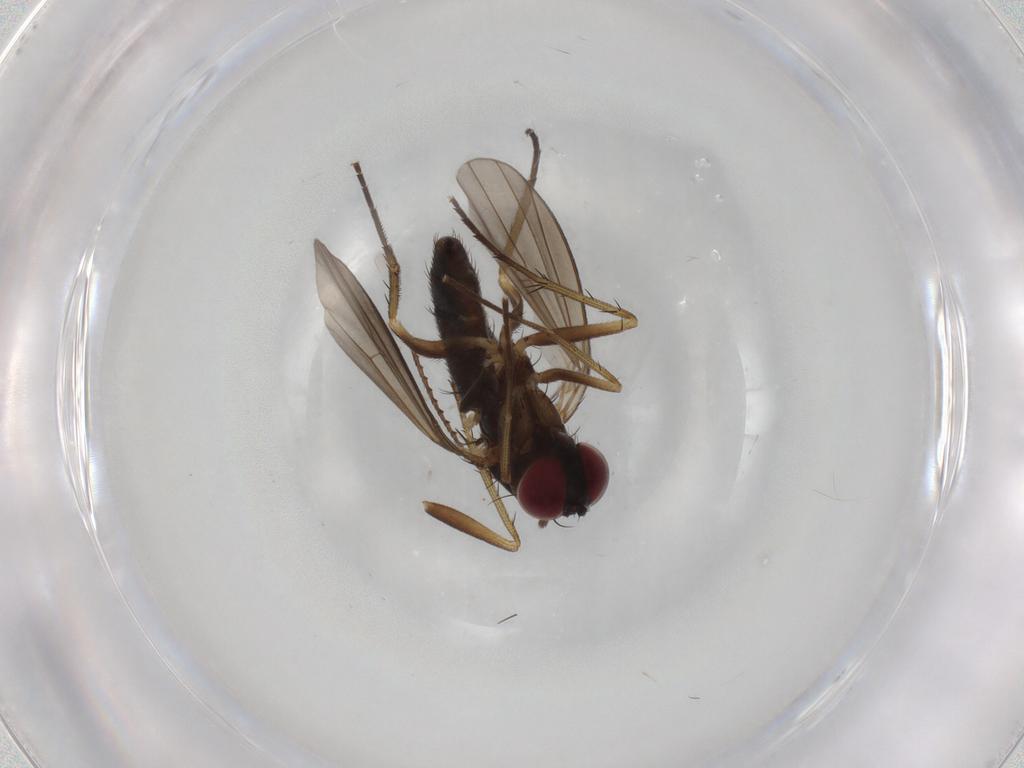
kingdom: Animalia
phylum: Arthropoda
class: Insecta
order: Diptera
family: Dolichopodidae
